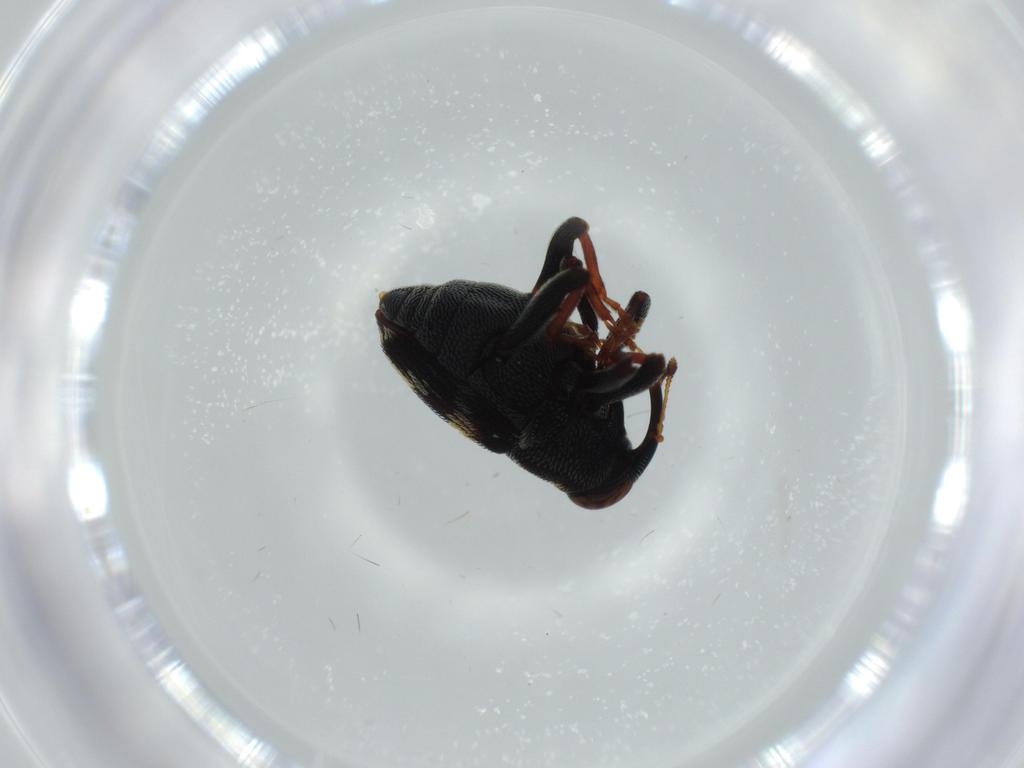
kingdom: Animalia
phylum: Arthropoda
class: Insecta
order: Coleoptera
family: Curculionidae
